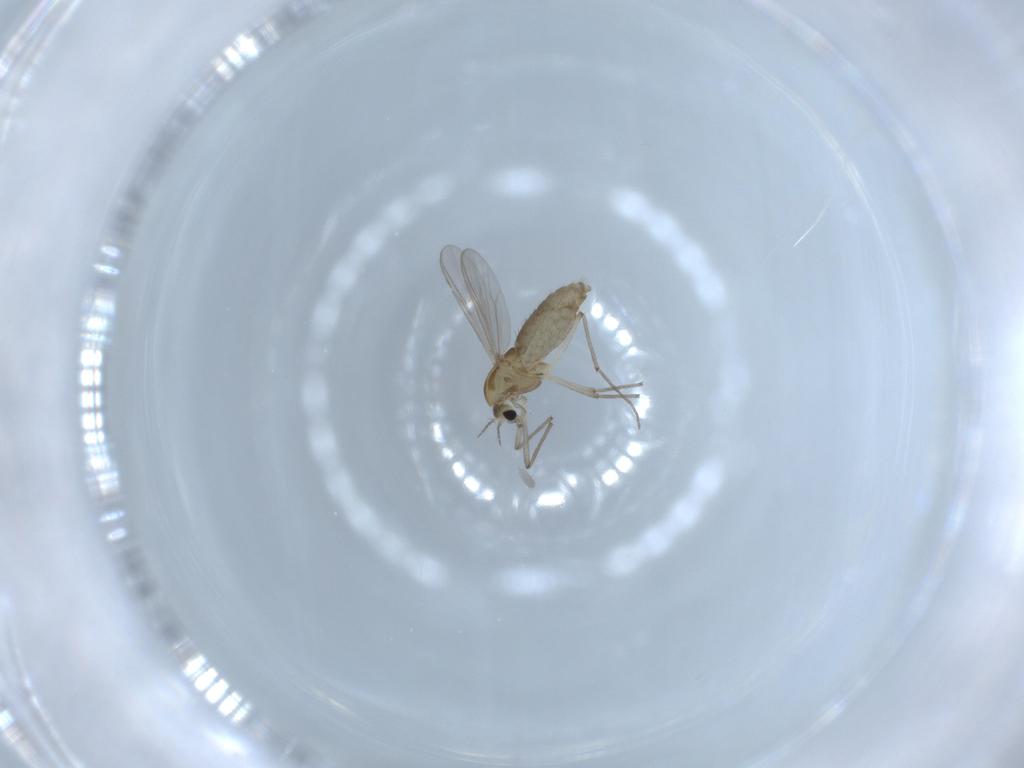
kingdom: Animalia
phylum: Arthropoda
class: Insecta
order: Diptera
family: Chironomidae
